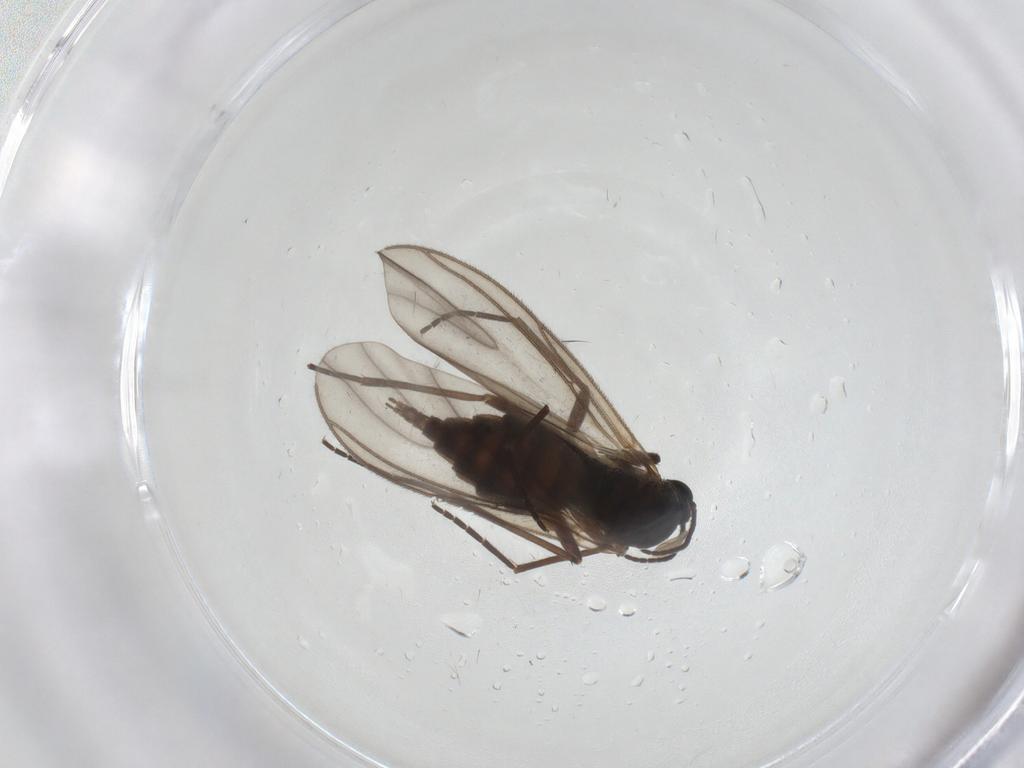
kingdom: Animalia
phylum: Arthropoda
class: Insecta
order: Diptera
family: Sciaridae
